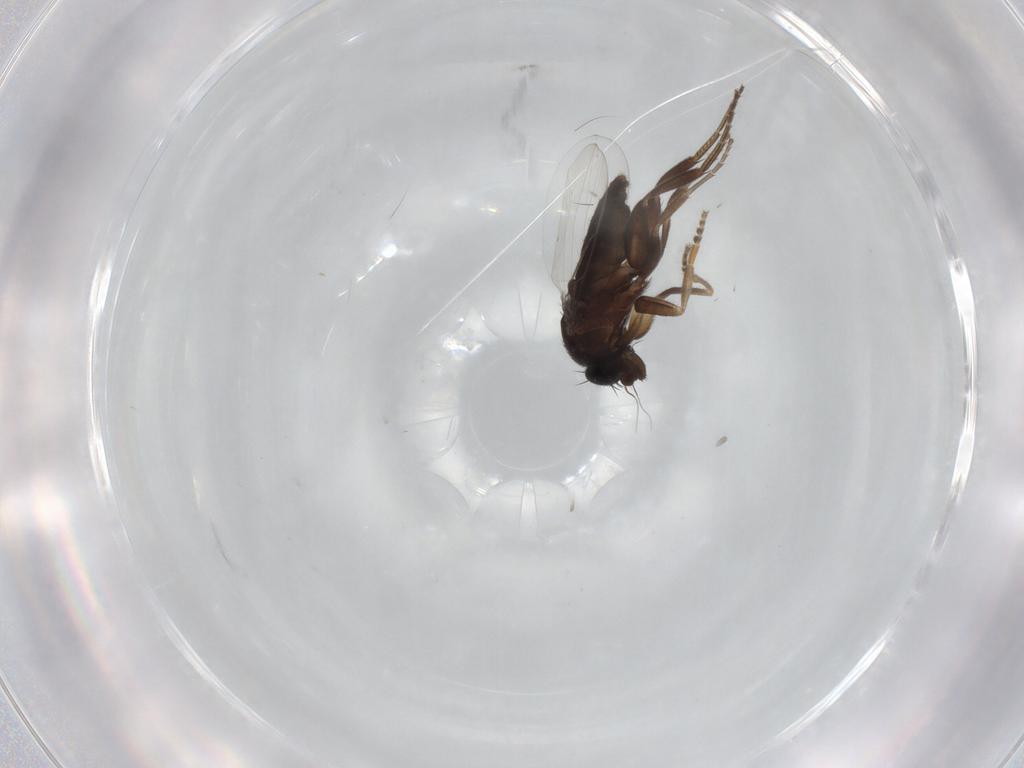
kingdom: Animalia
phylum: Arthropoda
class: Insecta
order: Diptera
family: Phoridae
